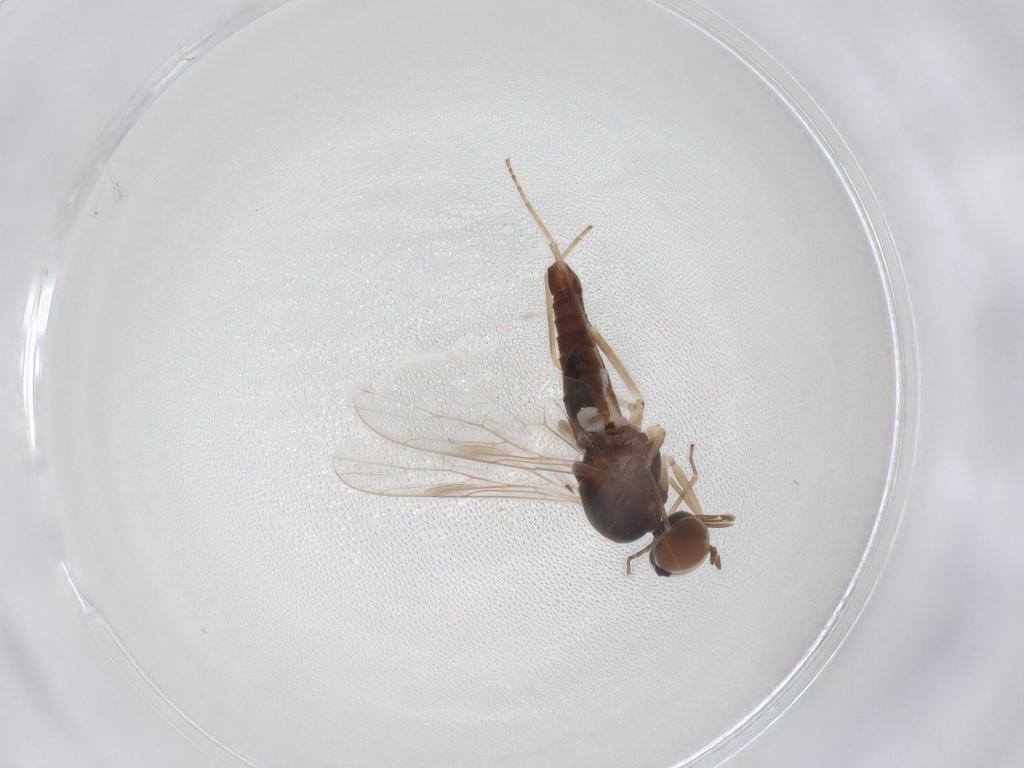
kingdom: Animalia
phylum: Arthropoda
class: Insecta
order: Diptera
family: Scenopinidae
